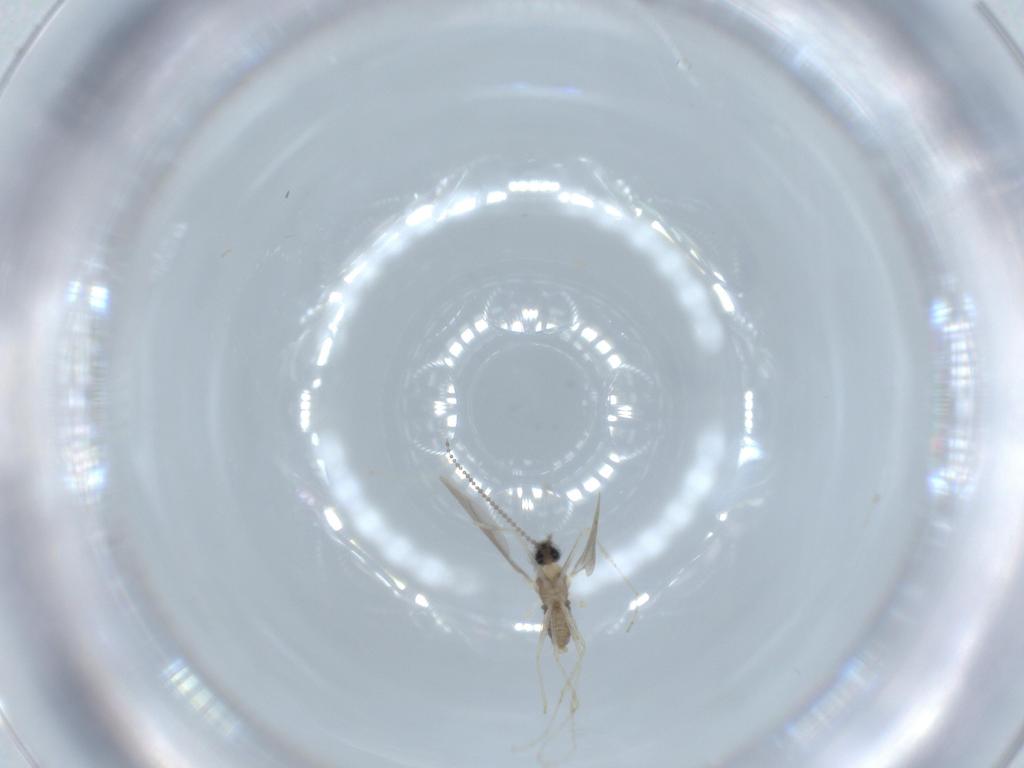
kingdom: Animalia
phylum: Arthropoda
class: Insecta
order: Diptera
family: Cecidomyiidae
